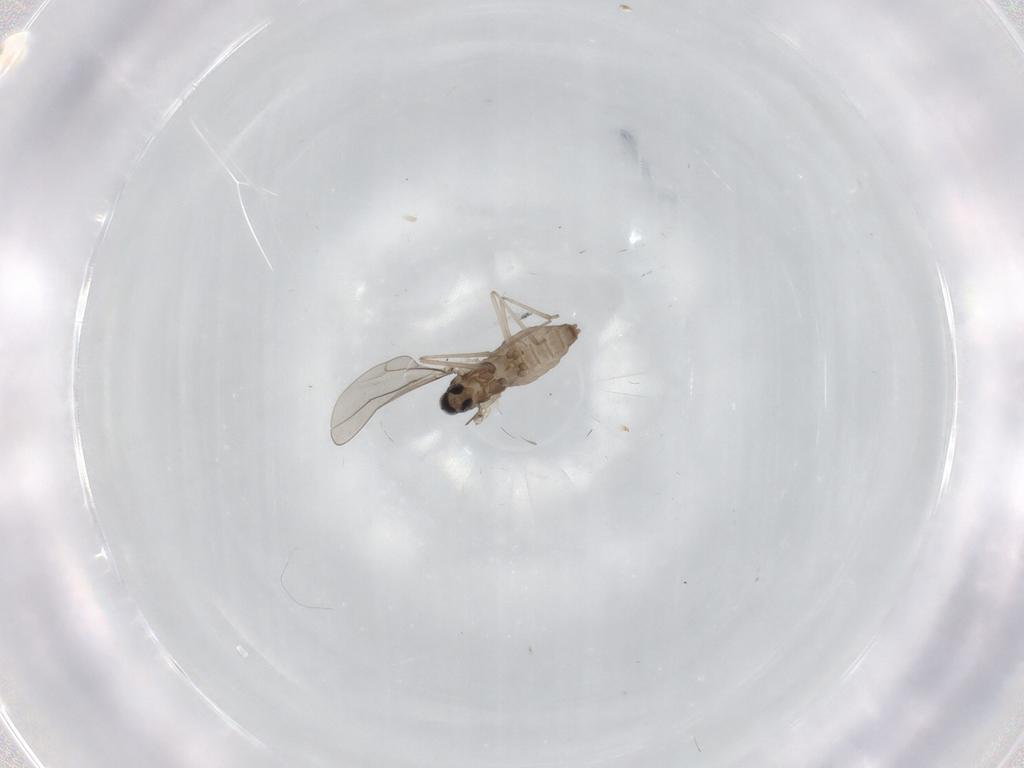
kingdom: Animalia
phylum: Arthropoda
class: Insecta
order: Diptera
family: Cecidomyiidae
